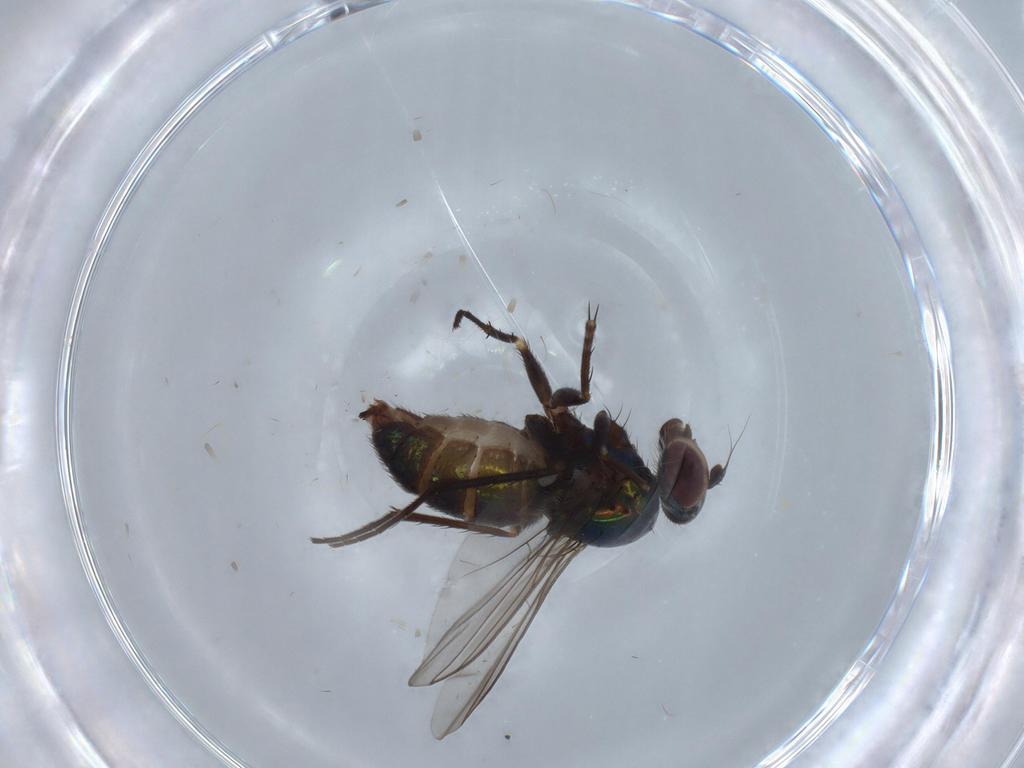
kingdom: Animalia
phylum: Arthropoda
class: Insecta
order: Diptera
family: Dolichopodidae
